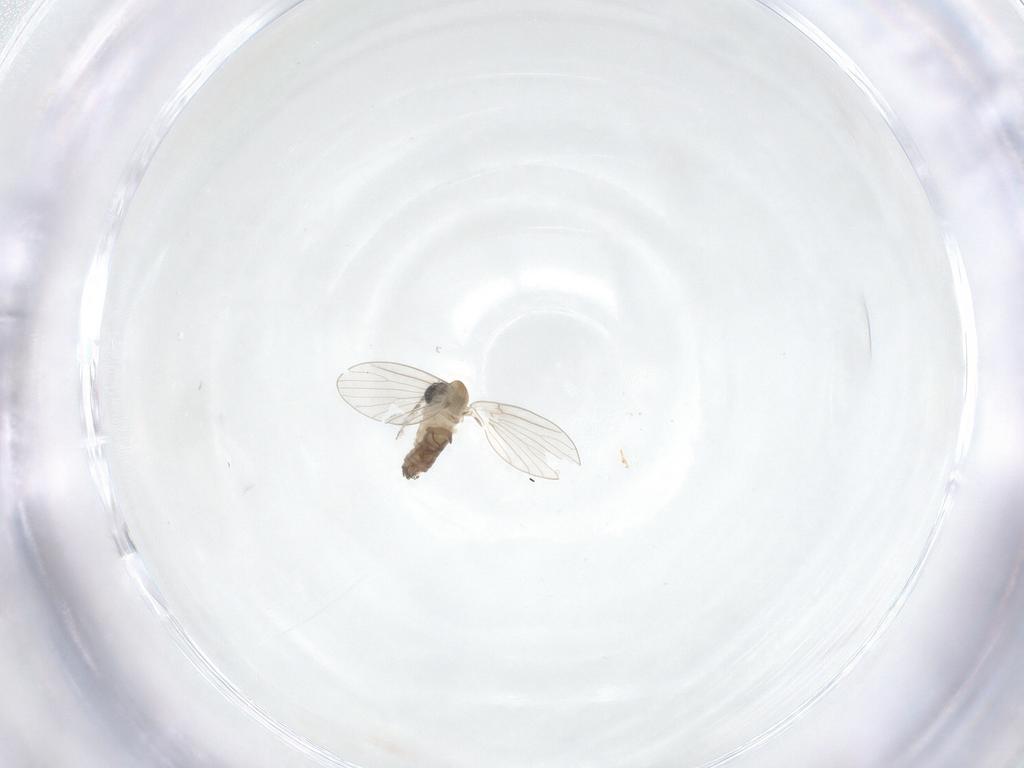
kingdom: Animalia
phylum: Arthropoda
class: Insecta
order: Diptera
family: Psychodidae
